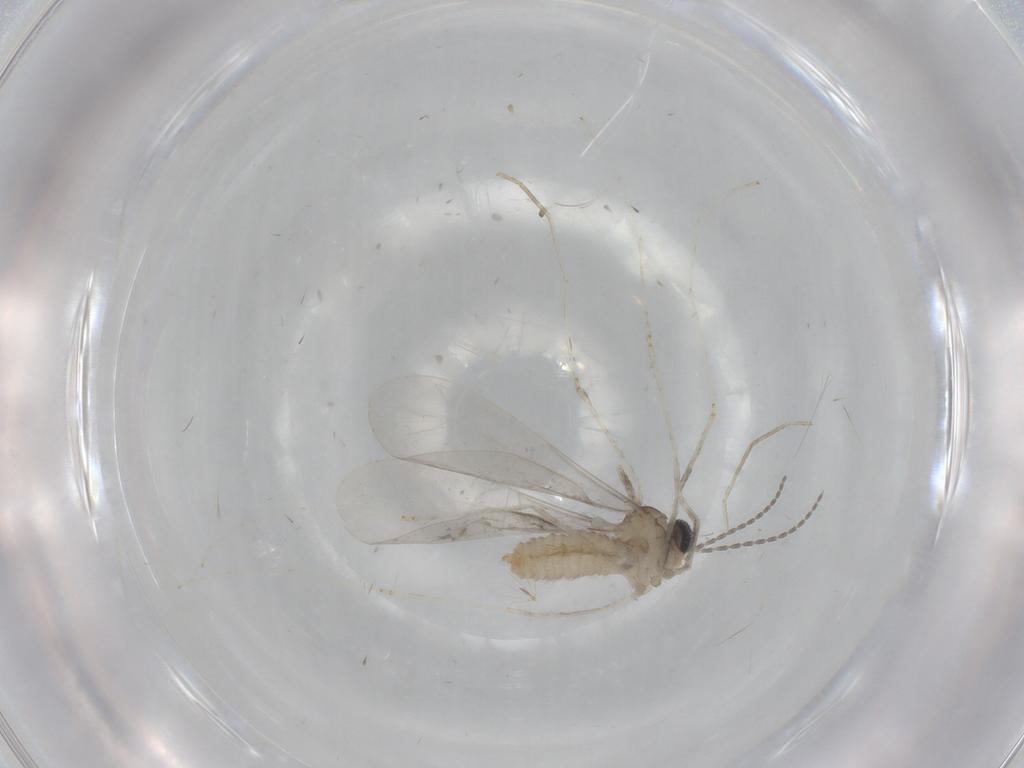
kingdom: Animalia
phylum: Arthropoda
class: Insecta
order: Diptera
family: Cecidomyiidae
